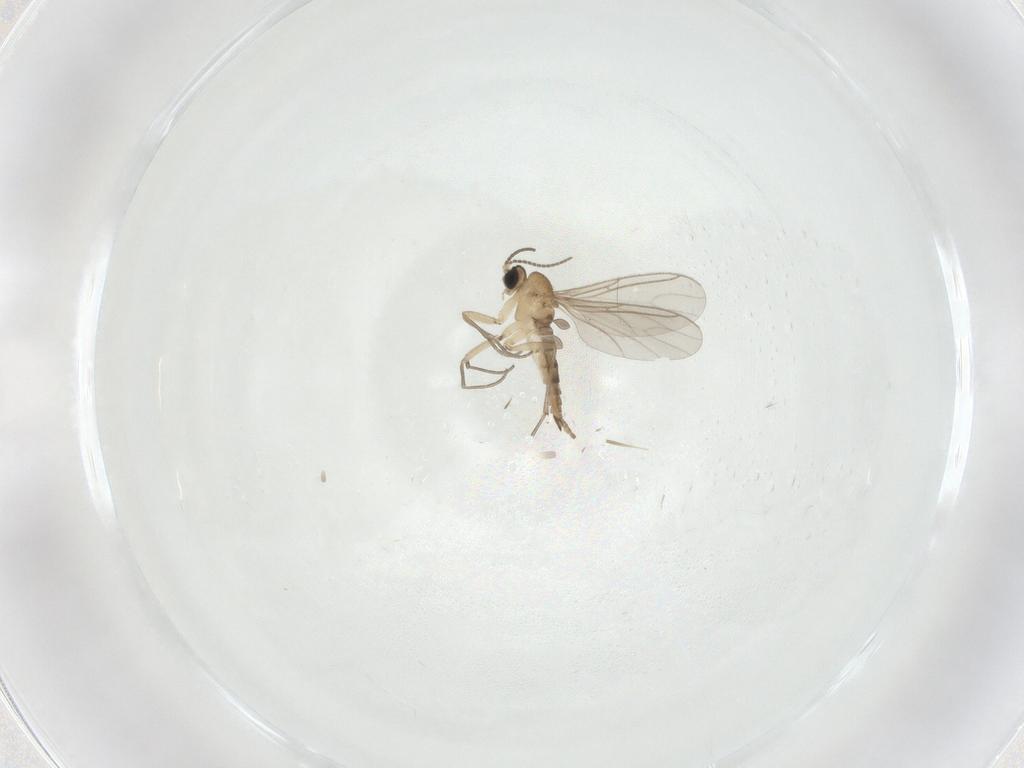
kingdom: Animalia
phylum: Arthropoda
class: Insecta
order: Diptera
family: Sciaridae
